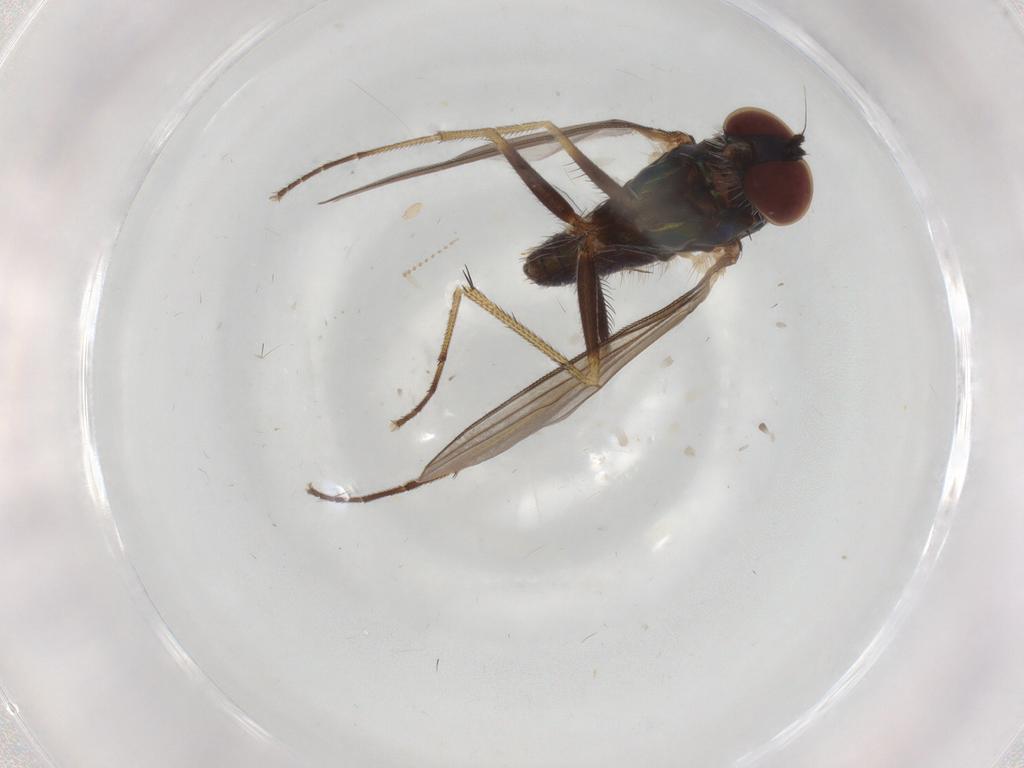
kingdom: Animalia
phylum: Arthropoda
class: Insecta
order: Diptera
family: Dolichopodidae
